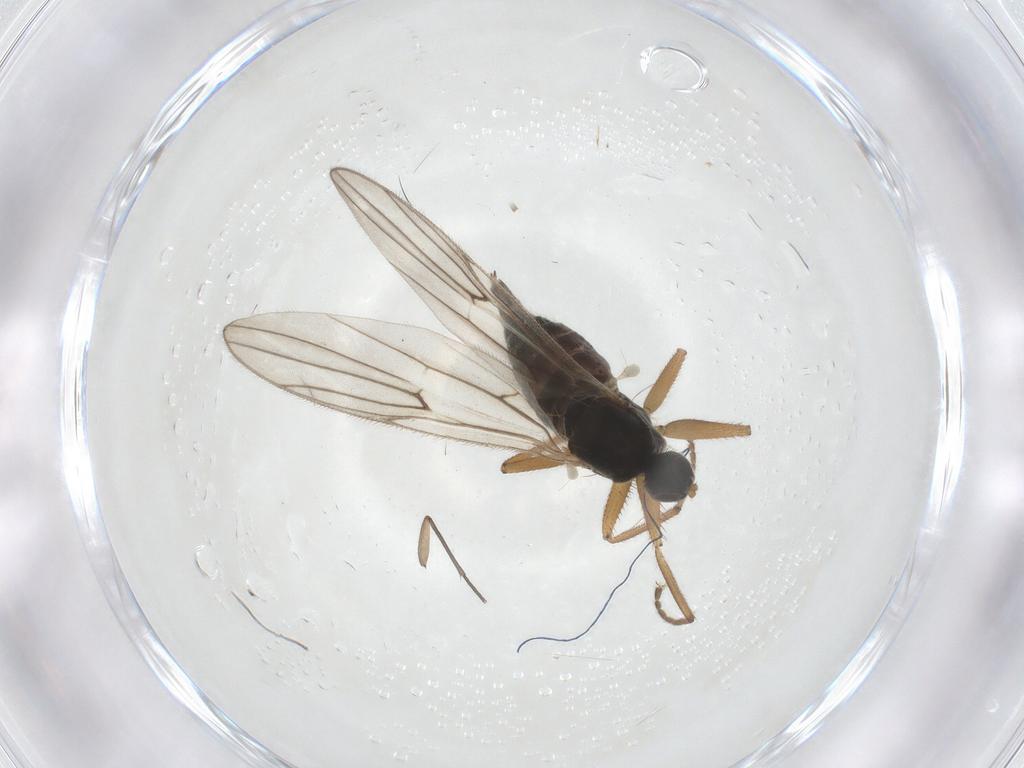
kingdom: Animalia
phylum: Arthropoda
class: Insecta
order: Diptera
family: Hybotidae
